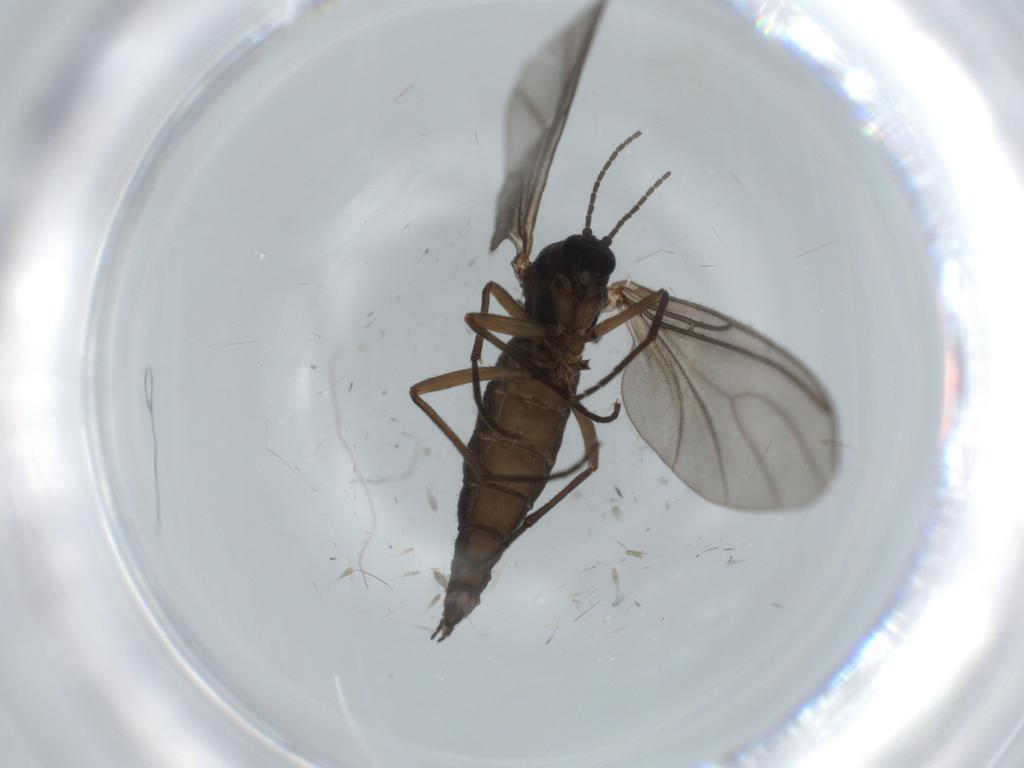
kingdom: Animalia
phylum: Arthropoda
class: Insecta
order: Diptera
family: Sciaridae
